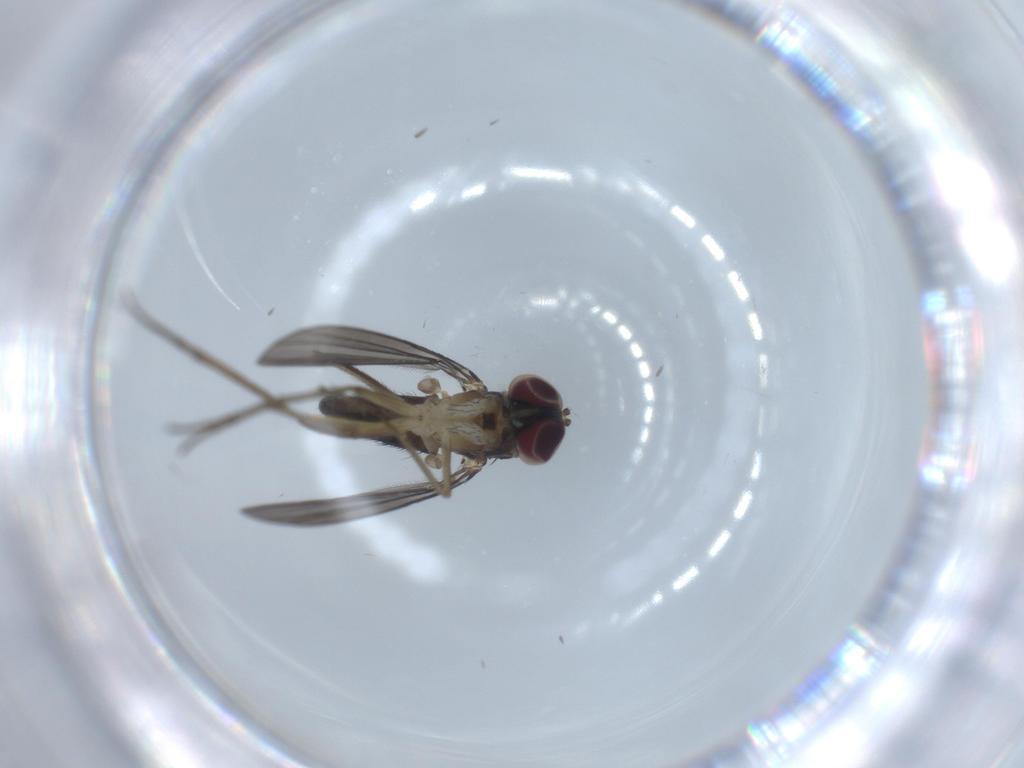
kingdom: Animalia
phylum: Arthropoda
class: Insecta
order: Diptera
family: Dolichopodidae
